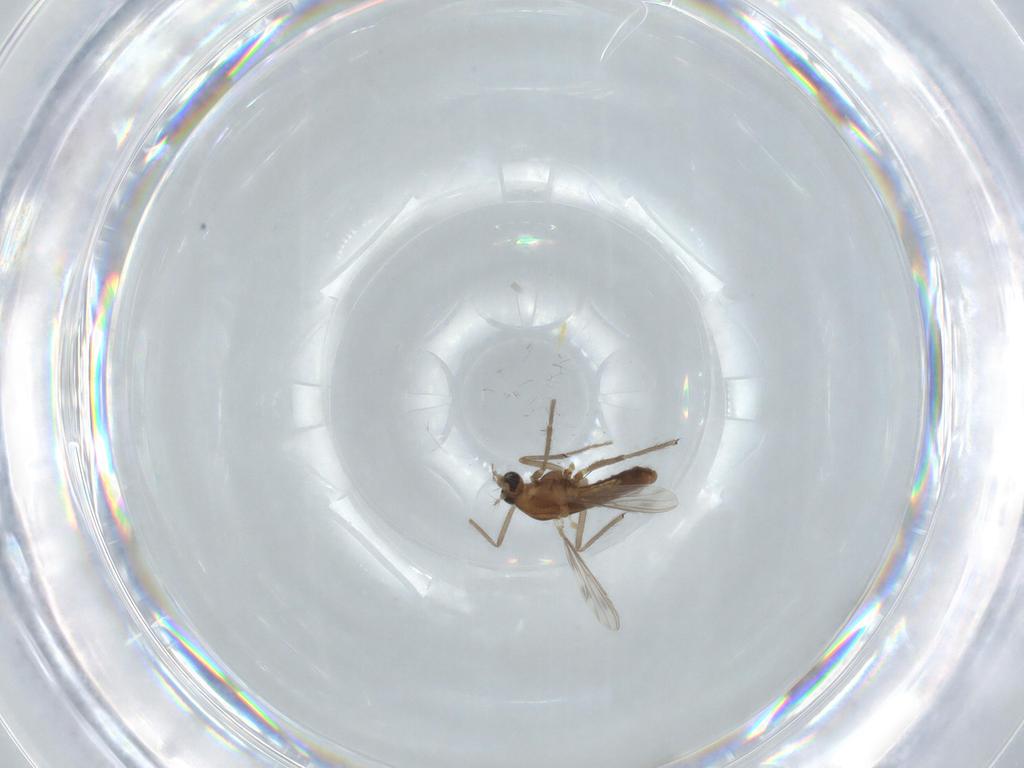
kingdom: Animalia
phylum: Arthropoda
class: Insecta
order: Diptera
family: Chironomidae
